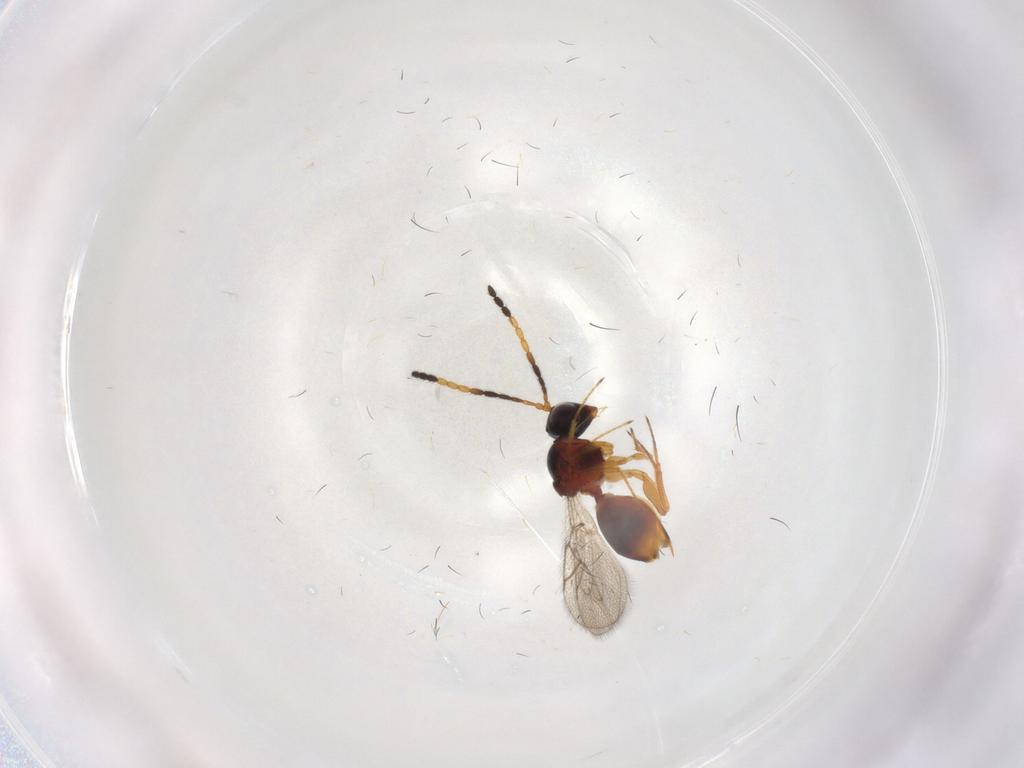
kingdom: Animalia
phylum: Arthropoda
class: Insecta
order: Hymenoptera
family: Figitidae
